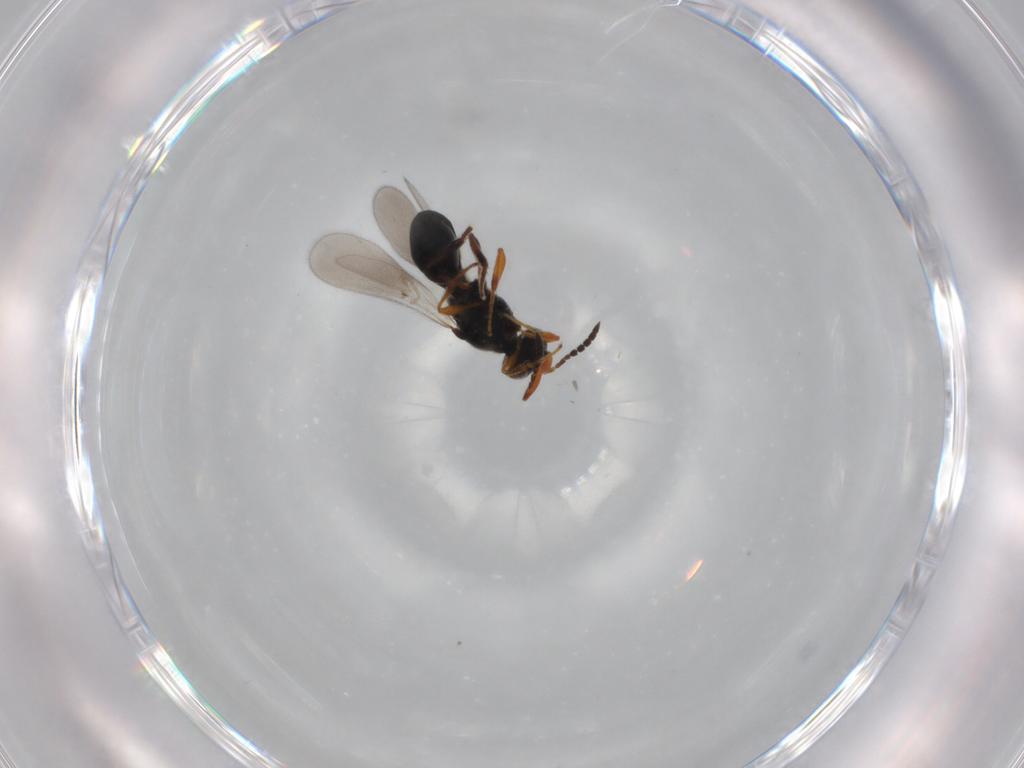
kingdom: Animalia
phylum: Arthropoda
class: Insecta
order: Hymenoptera
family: Platygastridae
